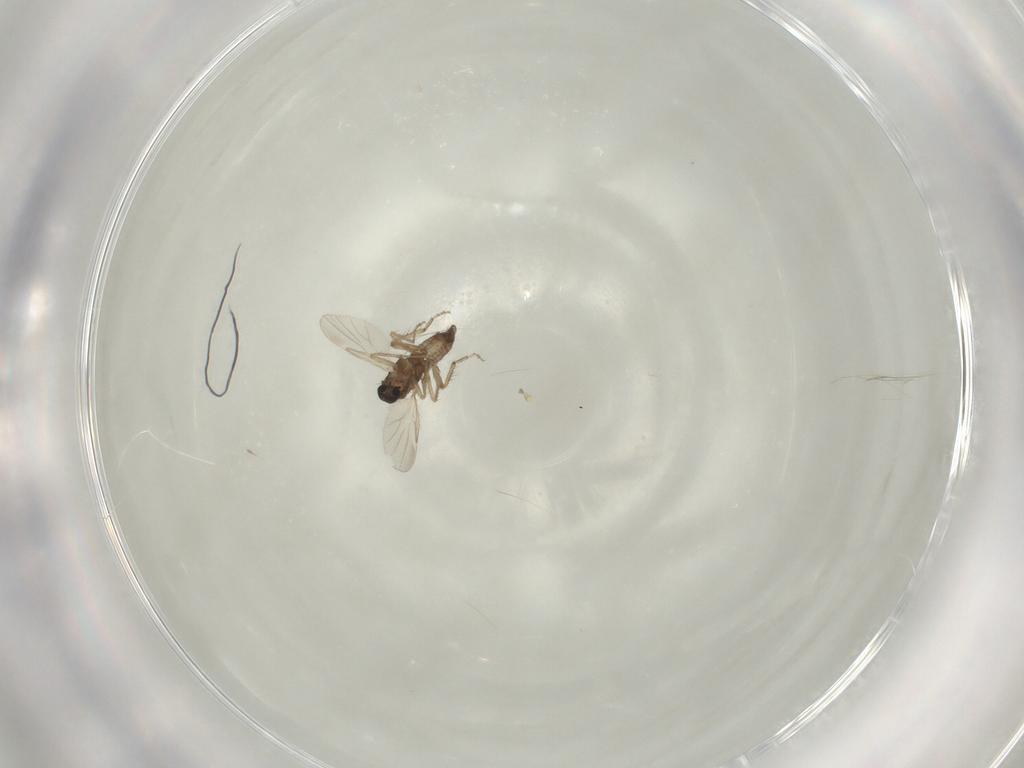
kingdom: Animalia
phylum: Arthropoda
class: Insecta
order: Diptera
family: Ceratopogonidae
